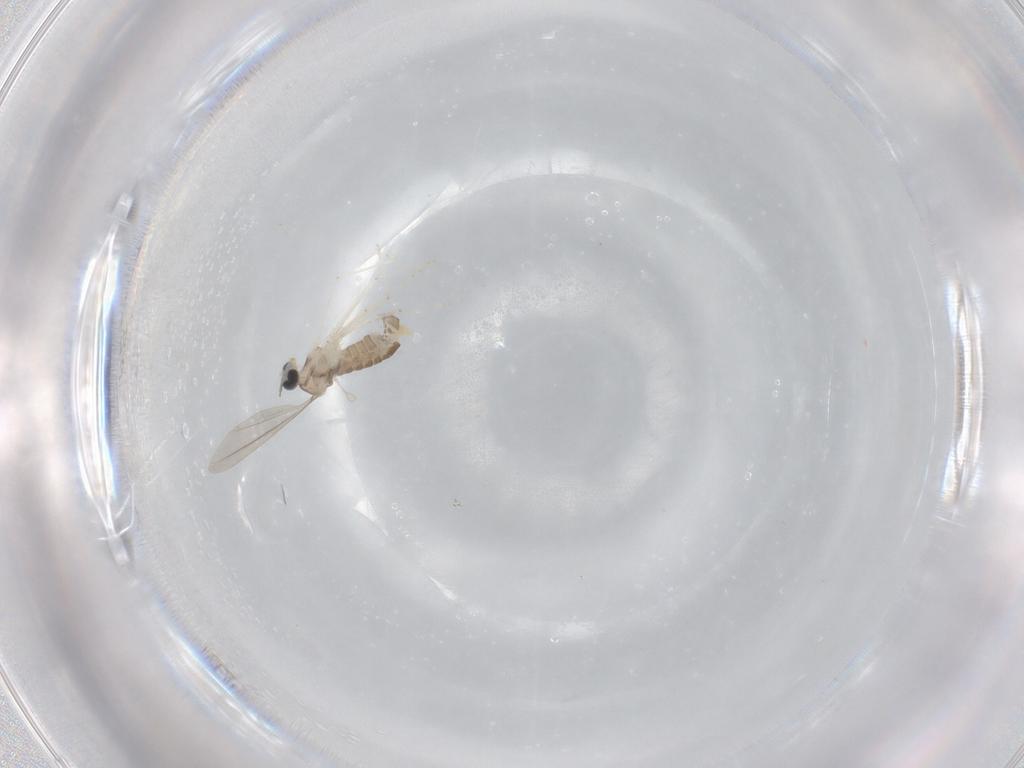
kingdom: Animalia
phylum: Arthropoda
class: Insecta
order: Diptera
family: Cecidomyiidae
